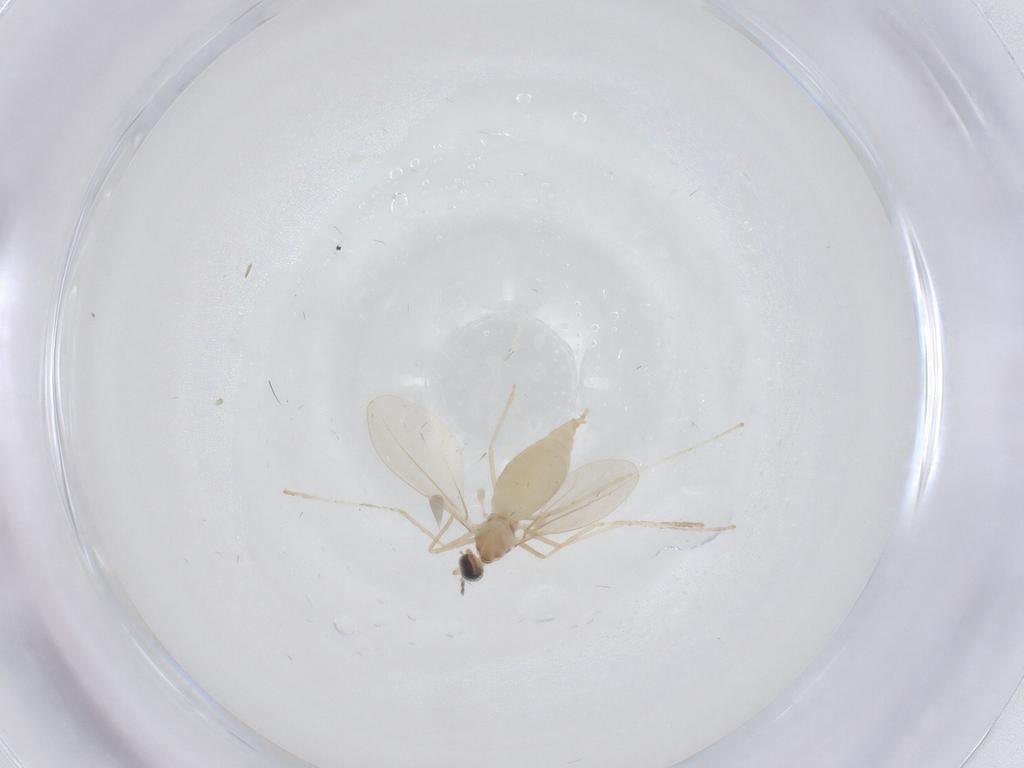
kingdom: Animalia
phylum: Arthropoda
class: Insecta
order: Diptera
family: Cecidomyiidae
